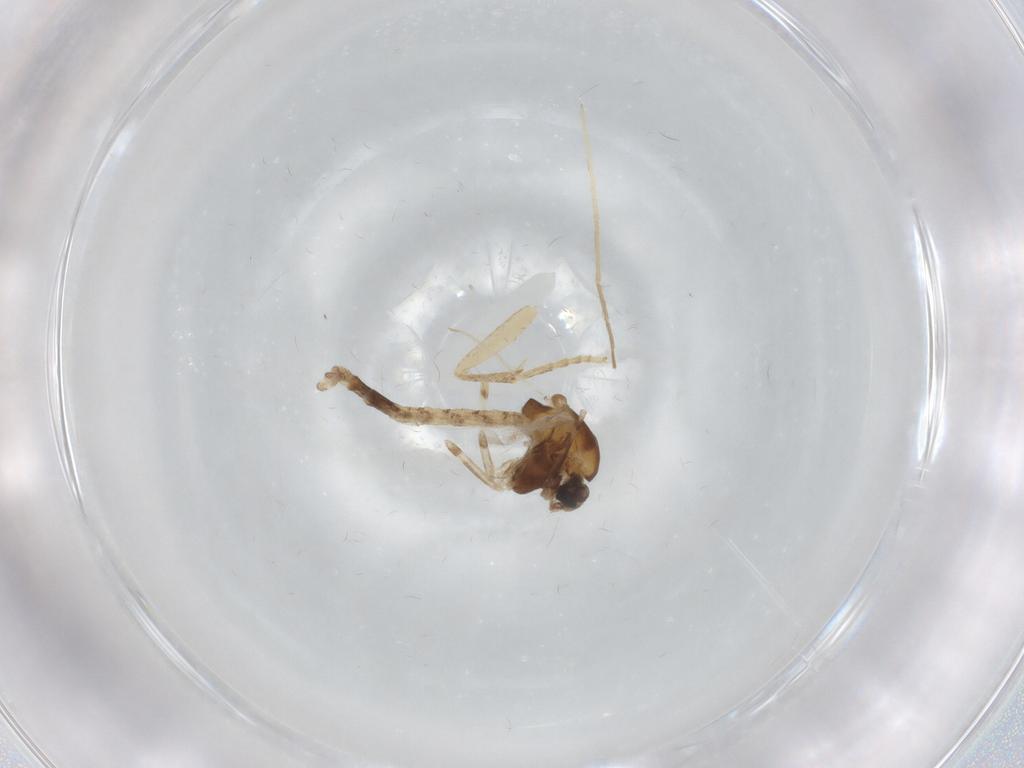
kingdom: Animalia
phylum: Arthropoda
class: Insecta
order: Diptera
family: Chironomidae
